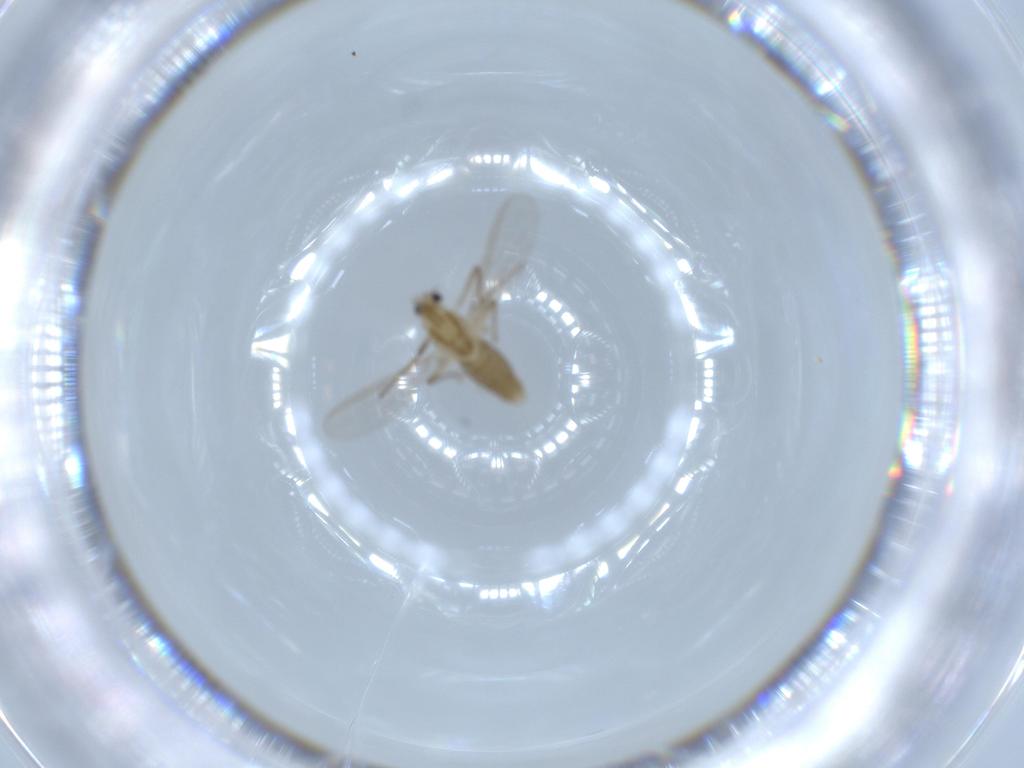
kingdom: Animalia
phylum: Arthropoda
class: Insecta
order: Diptera
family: Chironomidae
